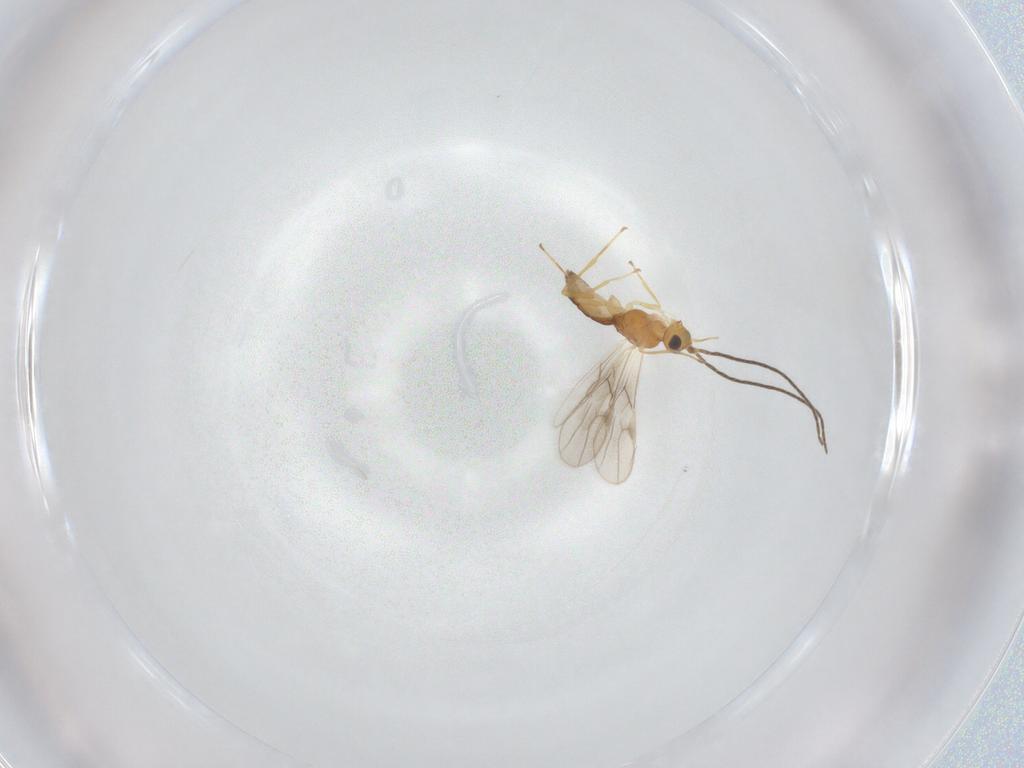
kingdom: Animalia
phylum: Arthropoda
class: Insecta
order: Hymenoptera
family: Braconidae
